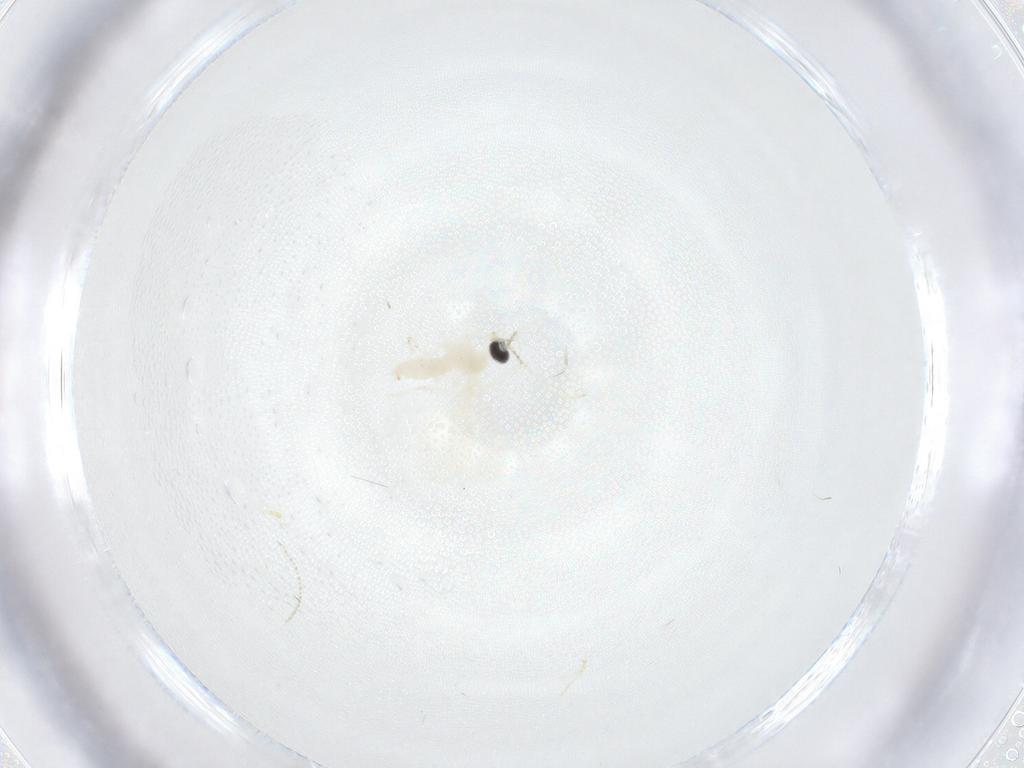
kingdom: Animalia
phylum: Arthropoda
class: Insecta
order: Diptera
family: Cecidomyiidae
